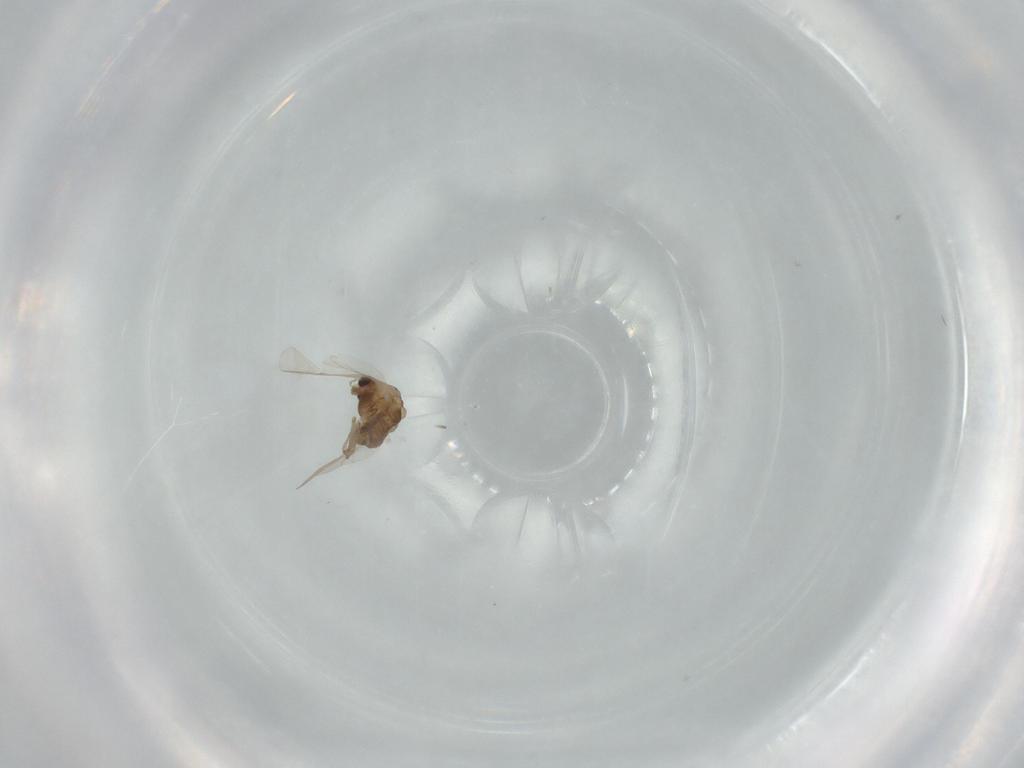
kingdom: Animalia
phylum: Arthropoda
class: Insecta
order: Diptera
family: Chironomidae
